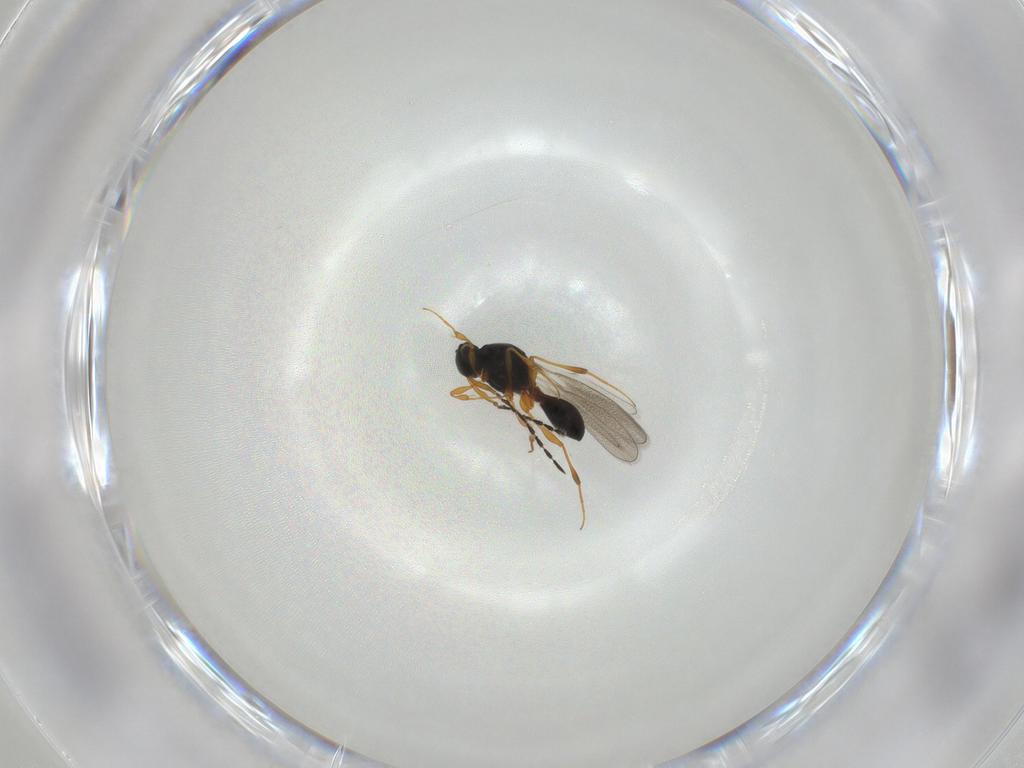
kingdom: Animalia
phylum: Arthropoda
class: Insecta
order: Hymenoptera
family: Platygastridae
